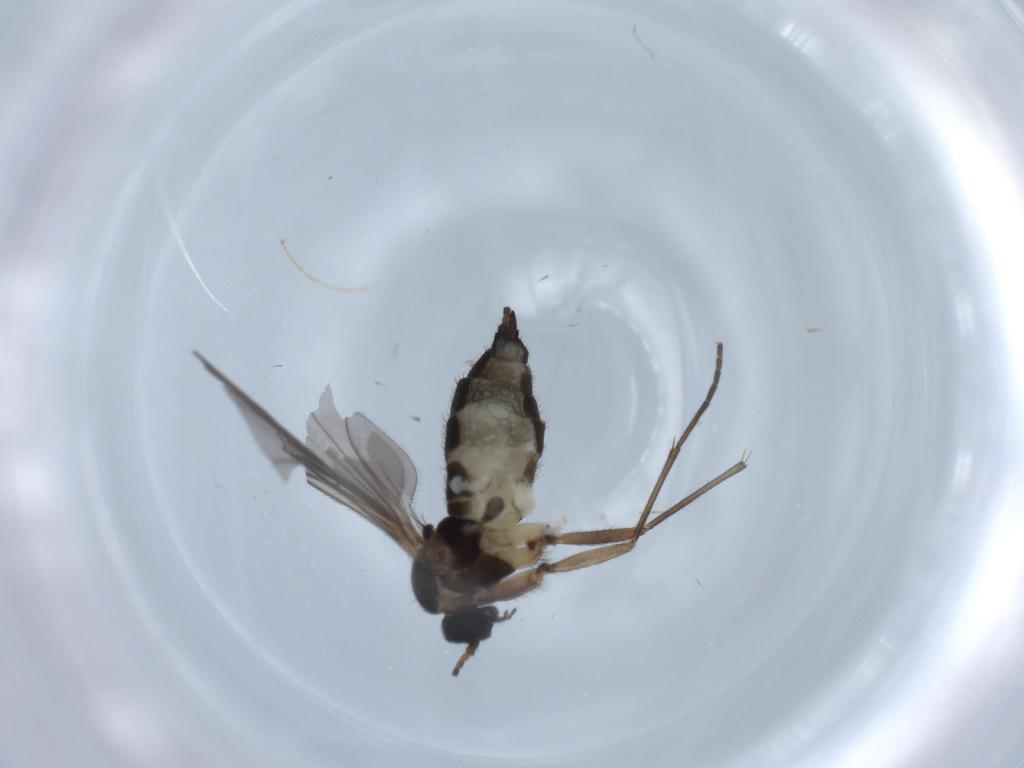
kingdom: Animalia
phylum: Arthropoda
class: Insecta
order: Diptera
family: Sciaridae
